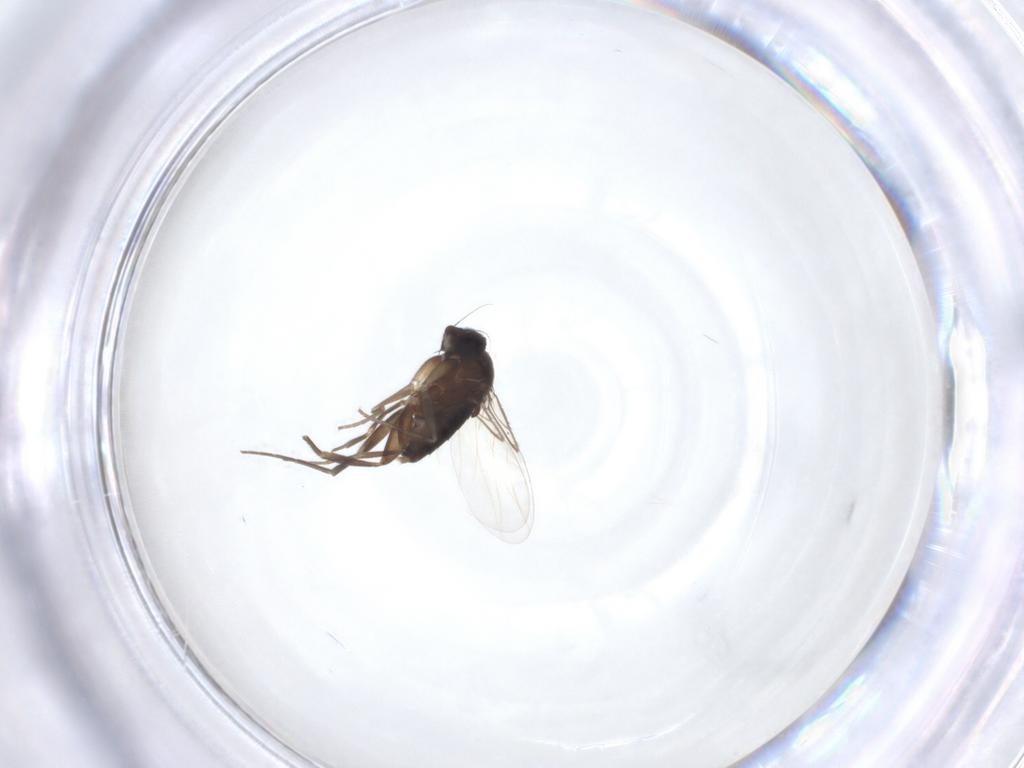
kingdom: Animalia
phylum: Arthropoda
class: Insecta
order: Diptera
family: Phoridae
